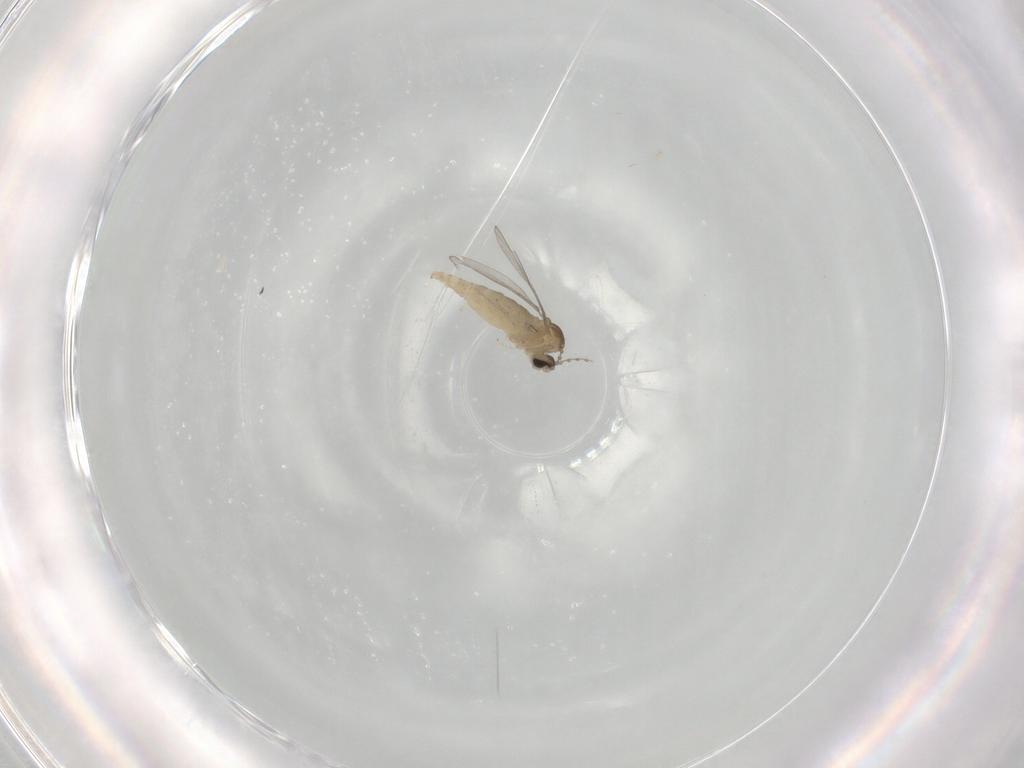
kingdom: Animalia
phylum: Arthropoda
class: Insecta
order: Diptera
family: Cecidomyiidae
